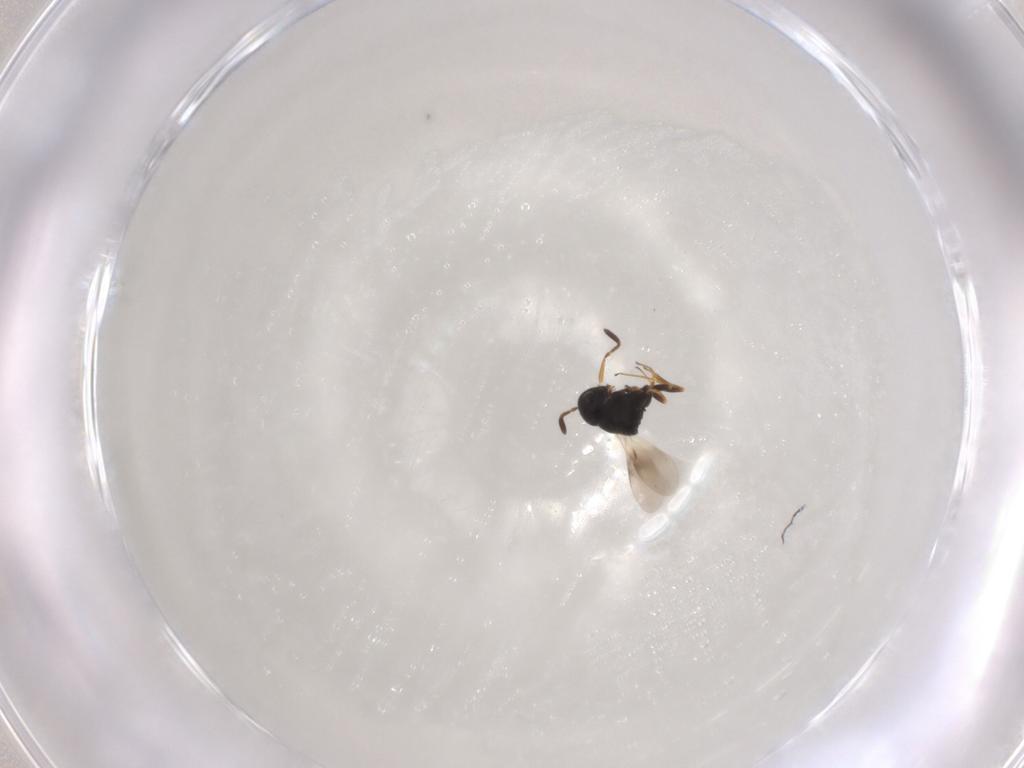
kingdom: Animalia
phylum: Arthropoda
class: Insecta
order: Hymenoptera
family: Scelionidae
